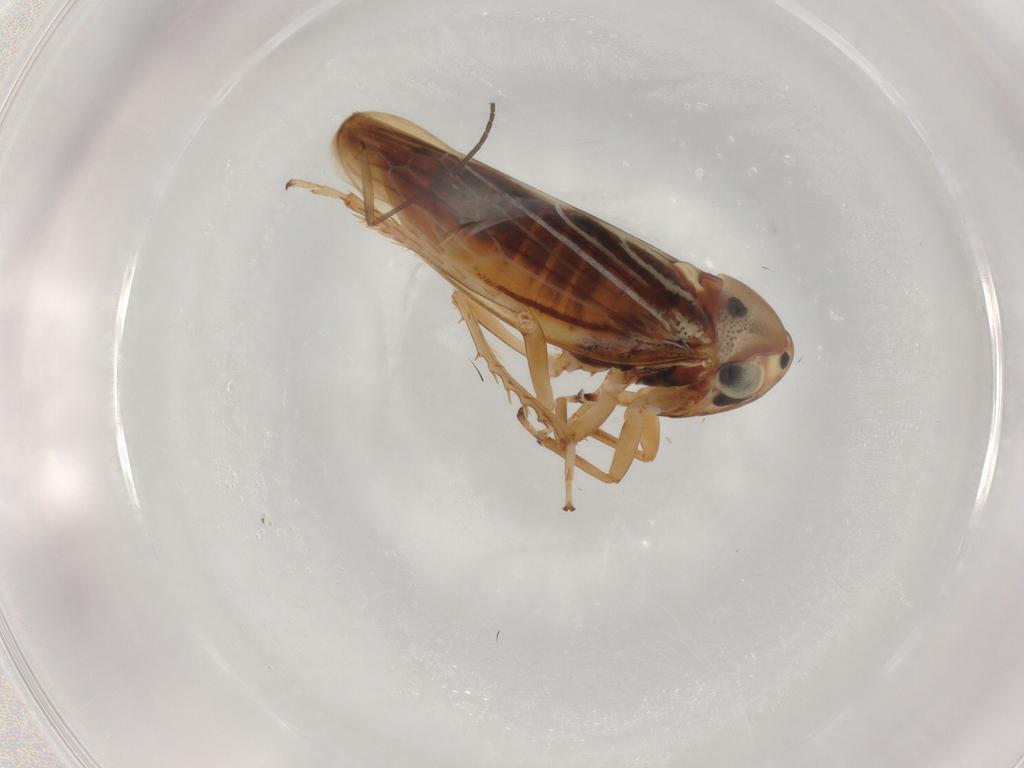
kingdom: Animalia
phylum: Arthropoda
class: Insecta
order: Hemiptera
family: Cicadellidae
